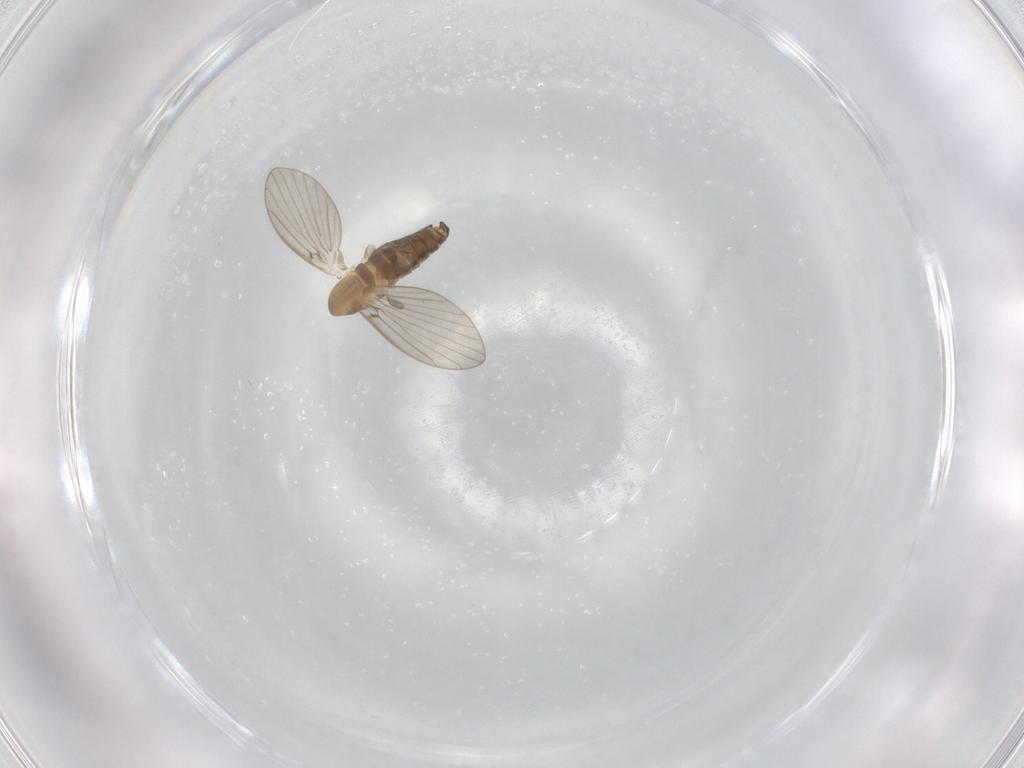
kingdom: Animalia
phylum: Arthropoda
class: Insecta
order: Diptera
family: Psychodidae
